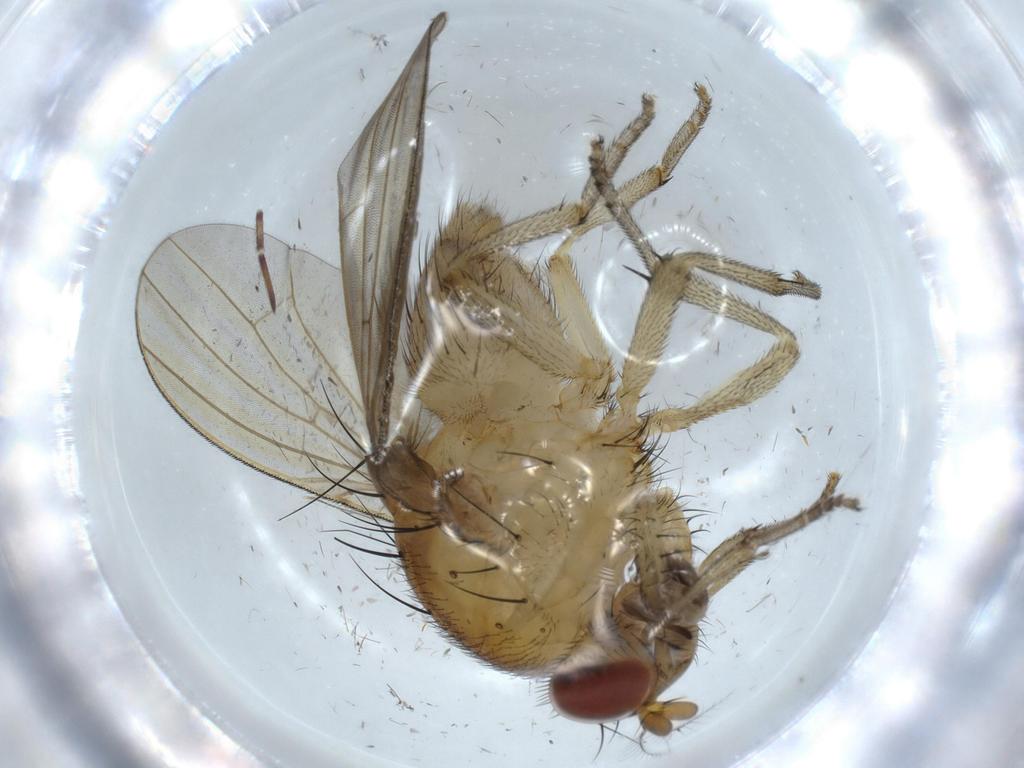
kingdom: Animalia
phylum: Arthropoda
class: Insecta
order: Diptera
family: Chironomidae
